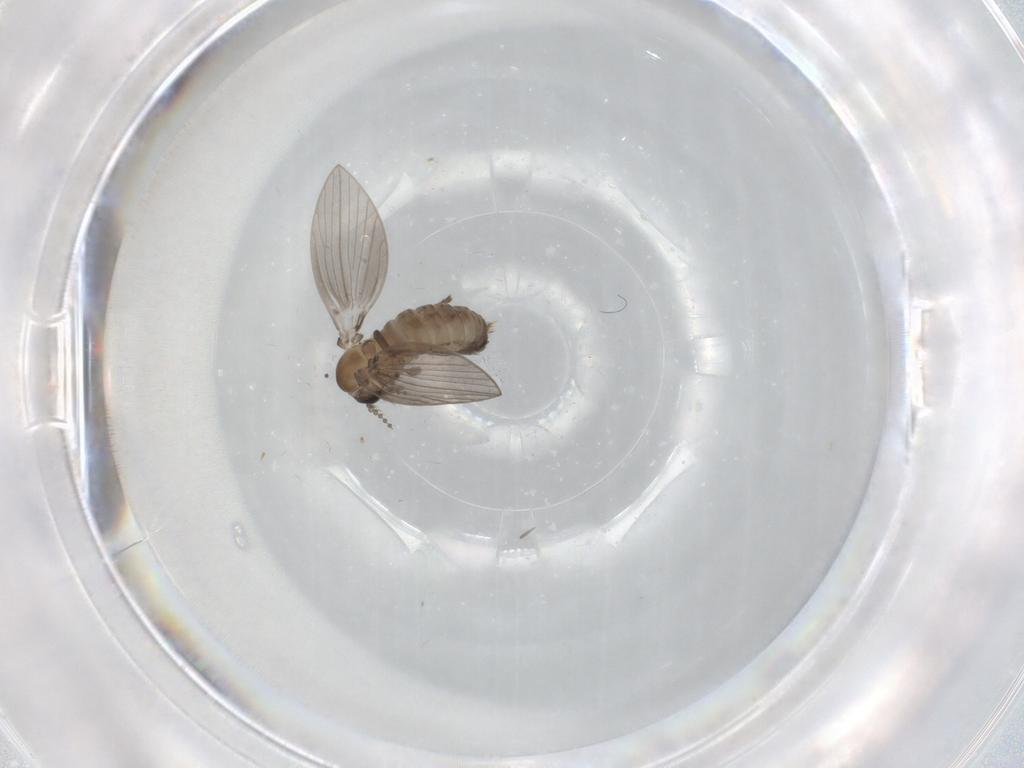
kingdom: Animalia
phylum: Arthropoda
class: Insecta
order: Diptera
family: Psychodidae
